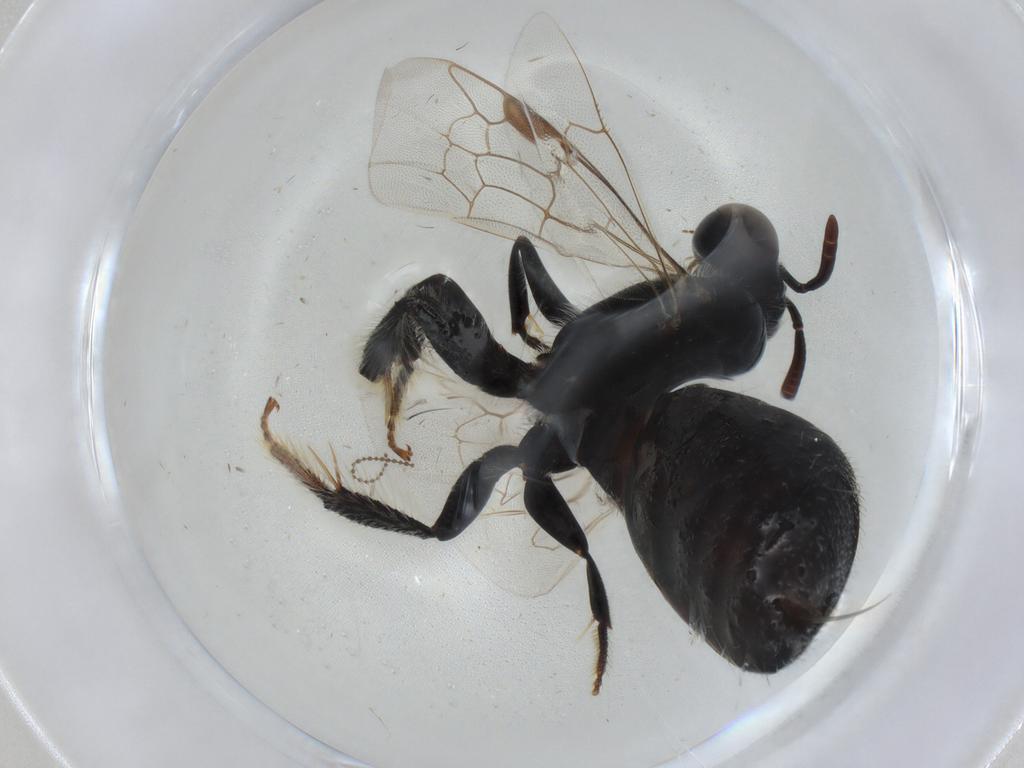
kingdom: Animalia
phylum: Arthropoda
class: Insecta
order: Hymenoptera
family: Apidae
